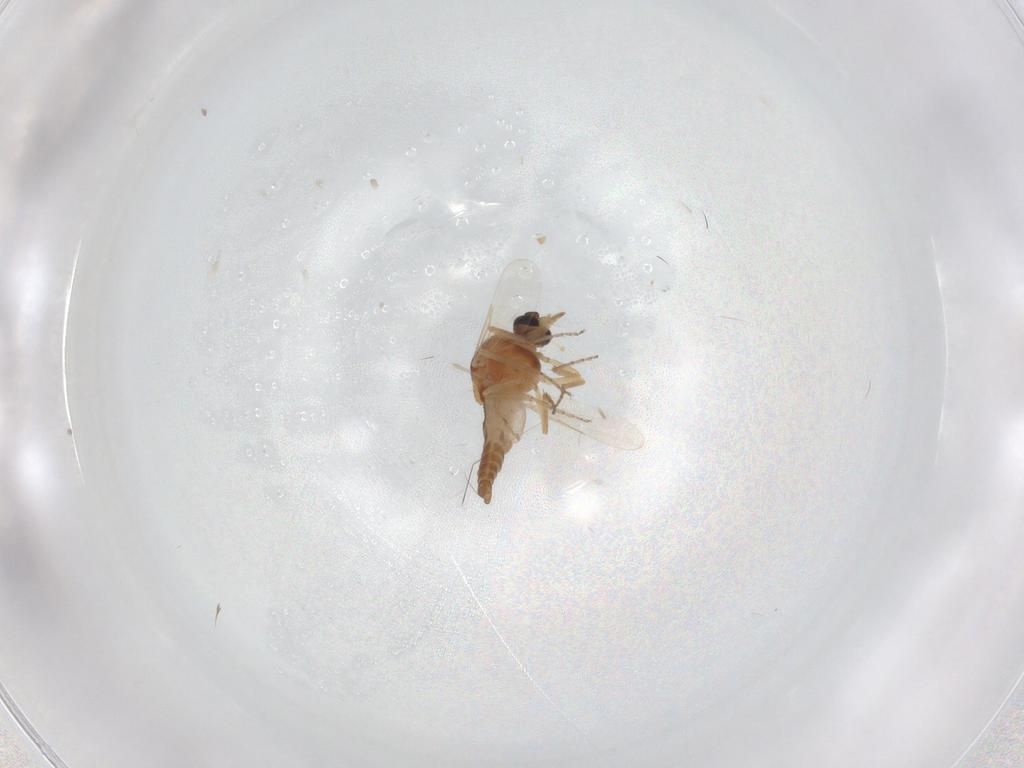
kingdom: Animalia
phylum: Arthropoda
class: Insecta
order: Diptera
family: Ceratopogonidae
